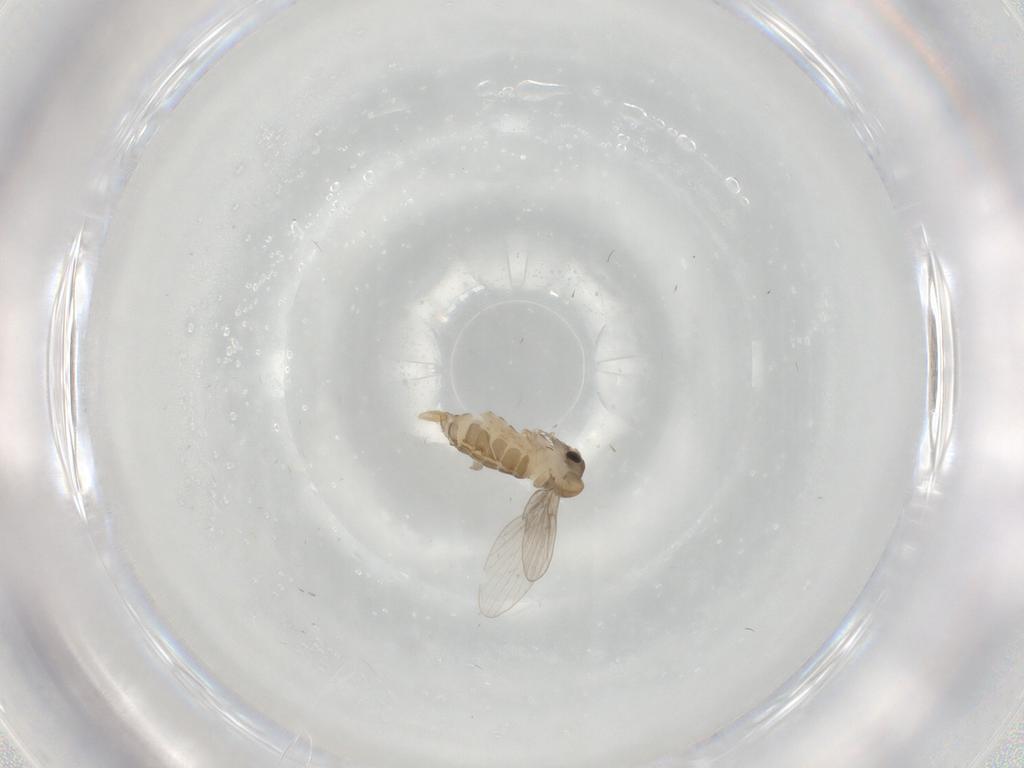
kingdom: Animalia
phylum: Arthropoda
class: Insecta
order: Diptera
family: Psychodidae
